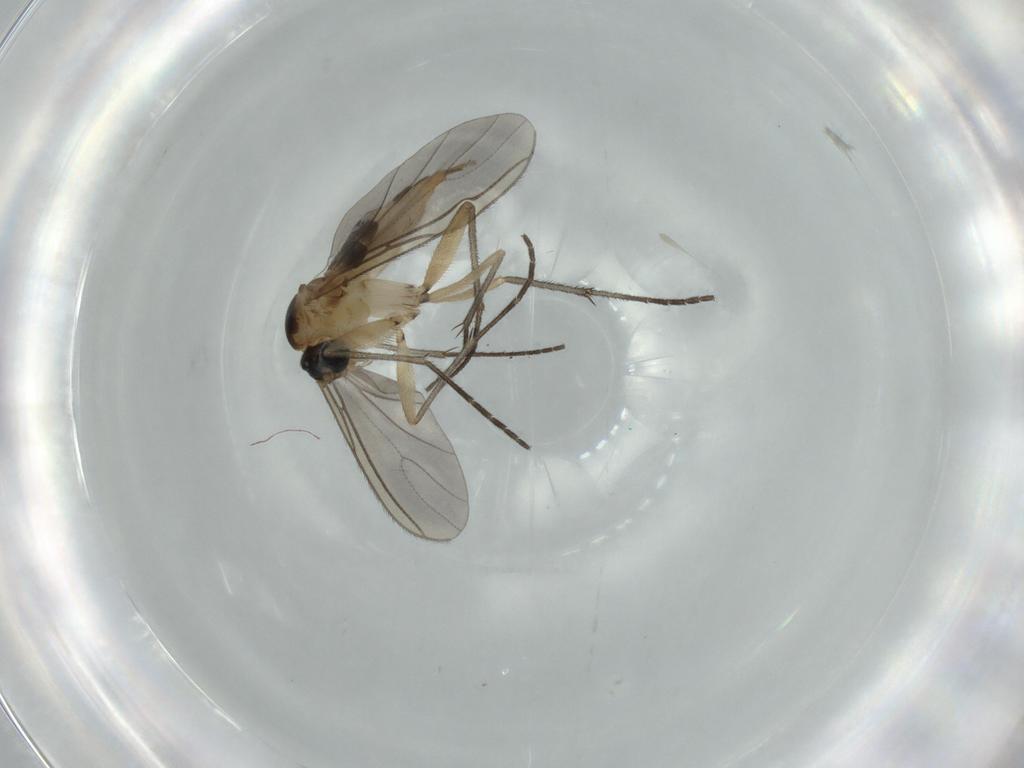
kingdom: Animalia
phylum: Arthropoda
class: Insecta
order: Diptera
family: Sciaridae
